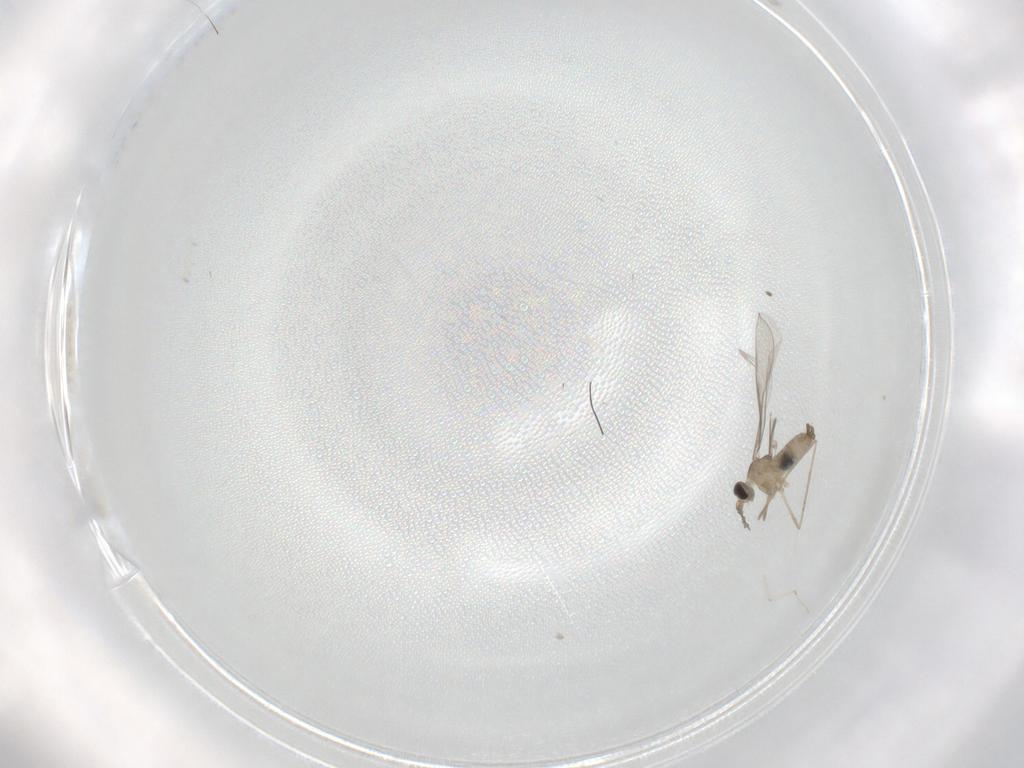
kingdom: Animalia
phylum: Arthropoda
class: Insecta
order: Diptera
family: Cecidomyiidae
